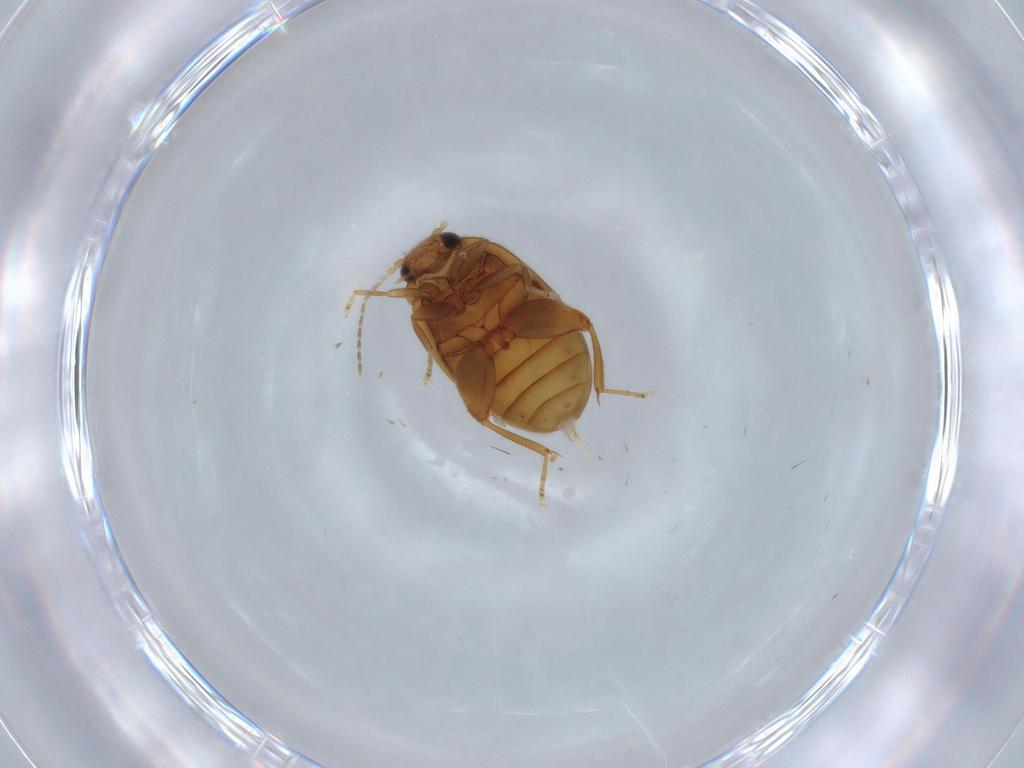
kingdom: Animalia
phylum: Arthropoda
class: Insecta
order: Coleoptera
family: Scirtidae
